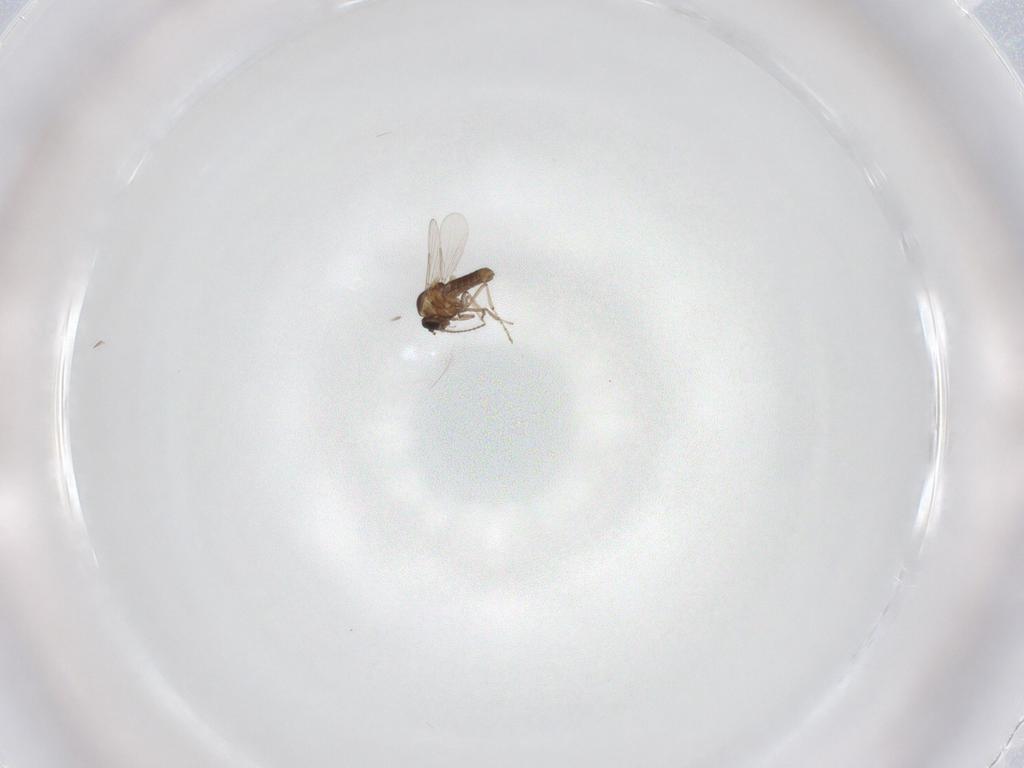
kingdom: Animalia
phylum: Arthropoda
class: Insecta
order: Diptera
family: Ceratopogonidae
